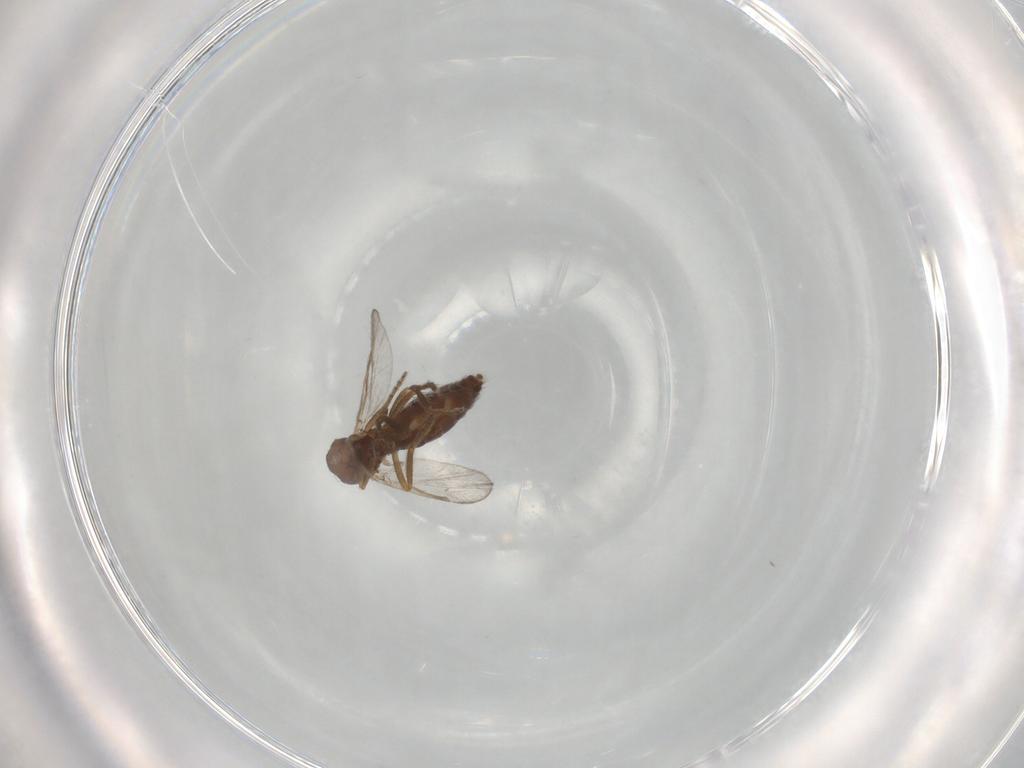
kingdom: Animalia
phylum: Arthropoda
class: Insecta
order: Diptera
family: Ceratopogonidae
